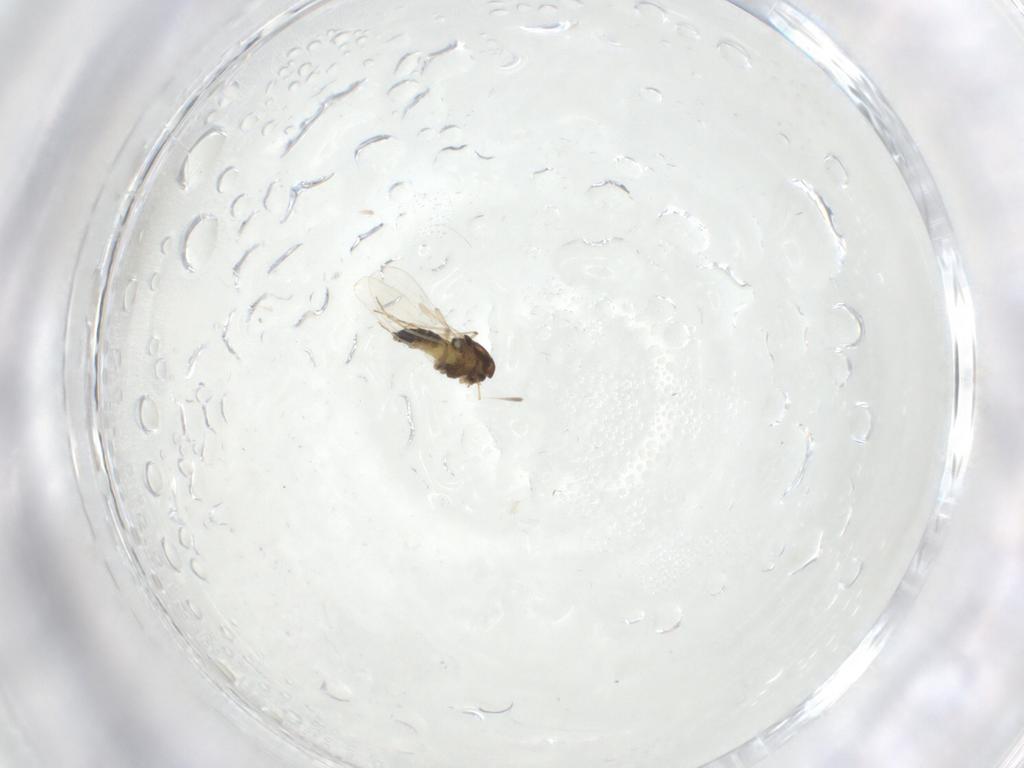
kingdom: Animalia
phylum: Arthropoda
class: Insecta
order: Diptera
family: Chironomidae
